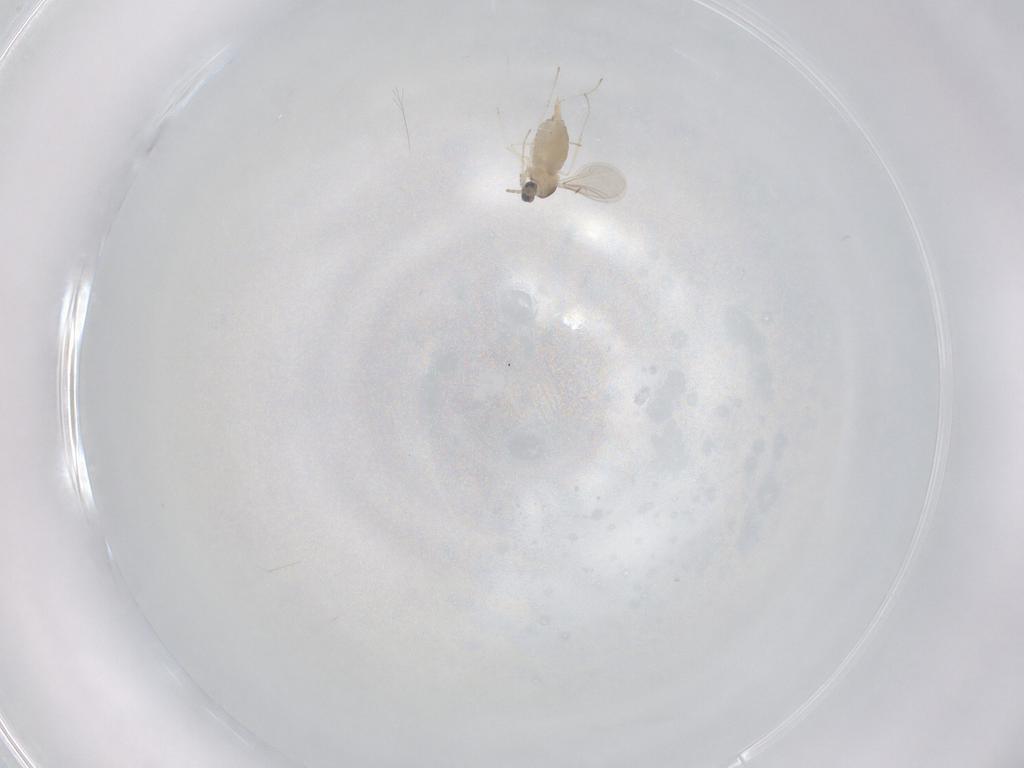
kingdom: Animalia
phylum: Arthropoda
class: Insecta
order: Diptera
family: Cecidomyiidae
